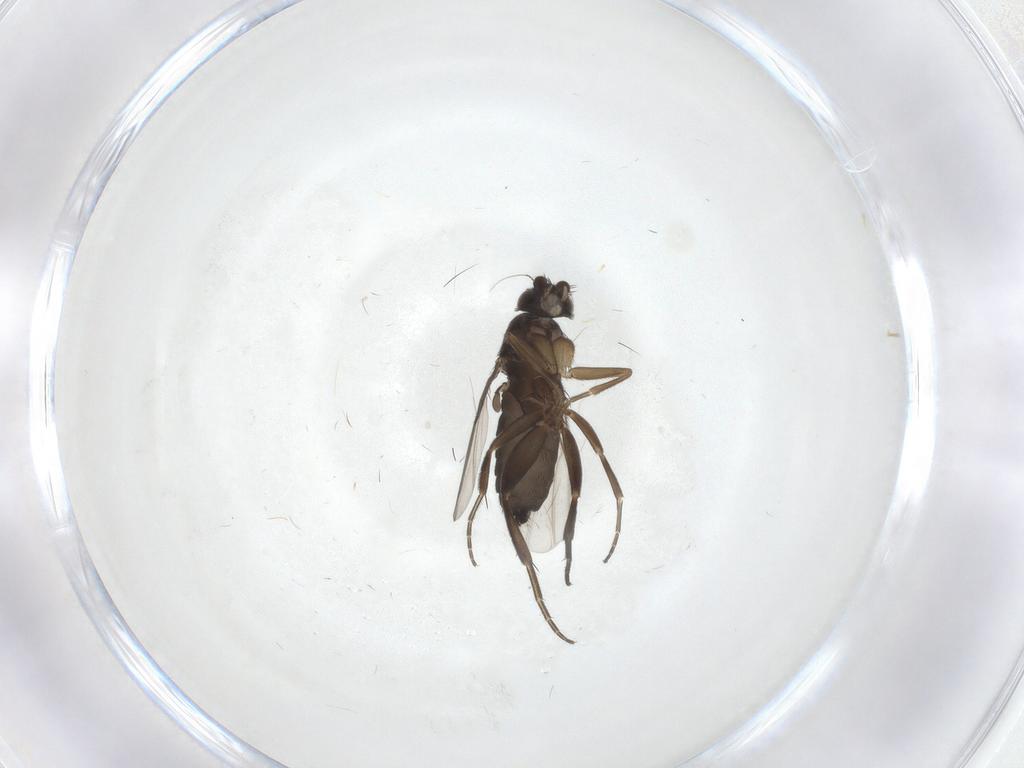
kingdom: Animalia
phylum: Arthropoda
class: Insecta
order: Diptera
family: Phoridae
